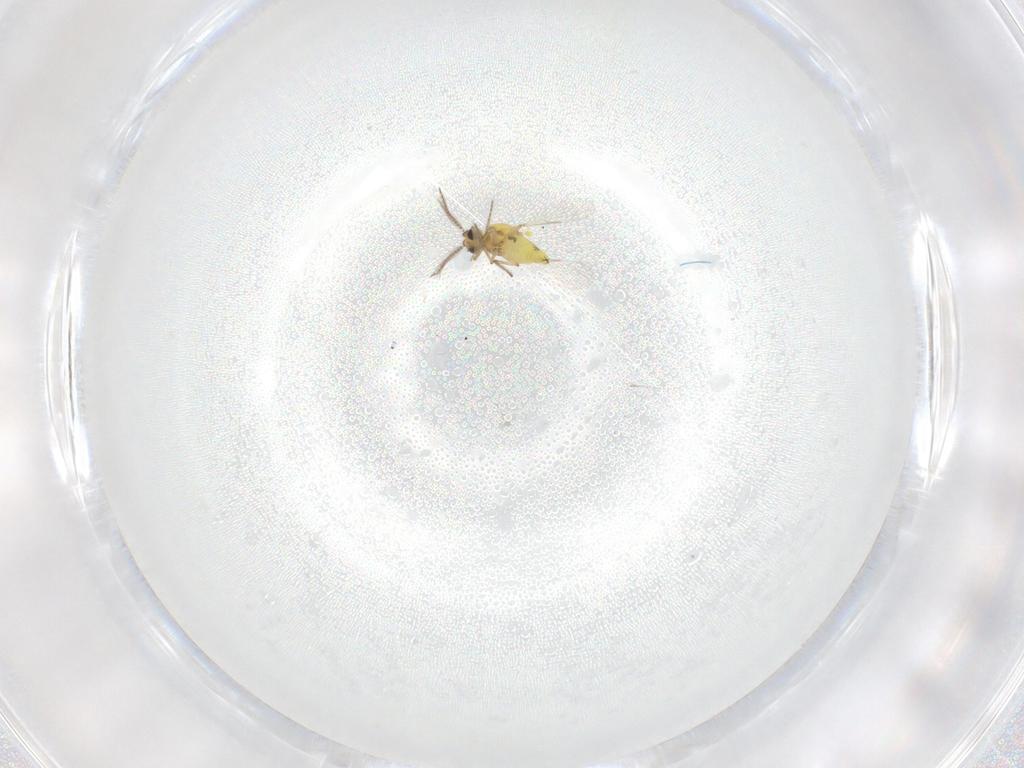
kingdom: Animalia
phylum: Arthropoda
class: Insecta
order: Diptera
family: Ceratopogonidae
